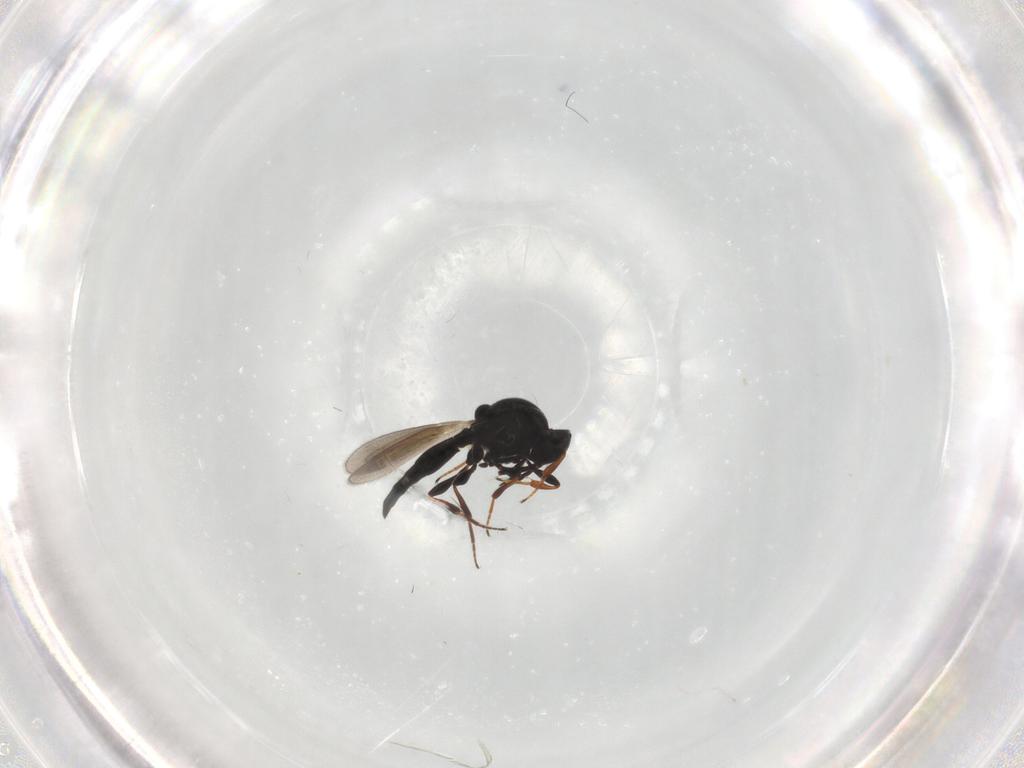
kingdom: Animalia
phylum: Arthropoda
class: Insecta
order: Hymenoptera
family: Platygastridae
